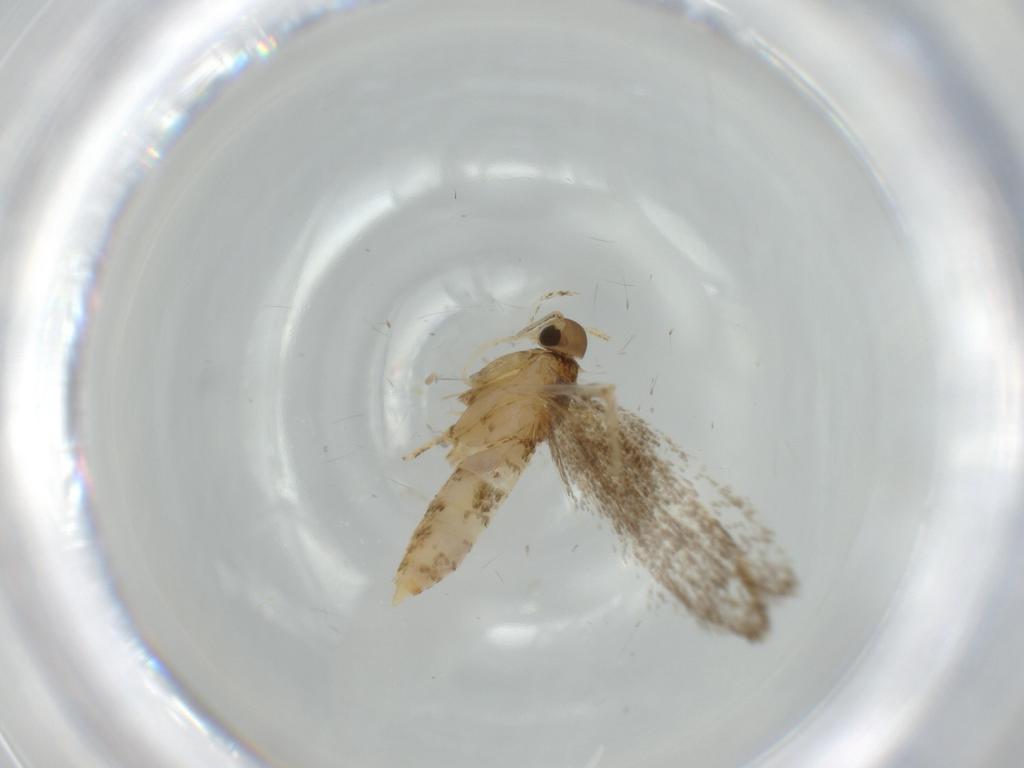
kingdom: Animalia
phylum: Arthropoda
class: Insecta
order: Lepidoptera
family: Oecophoridae
